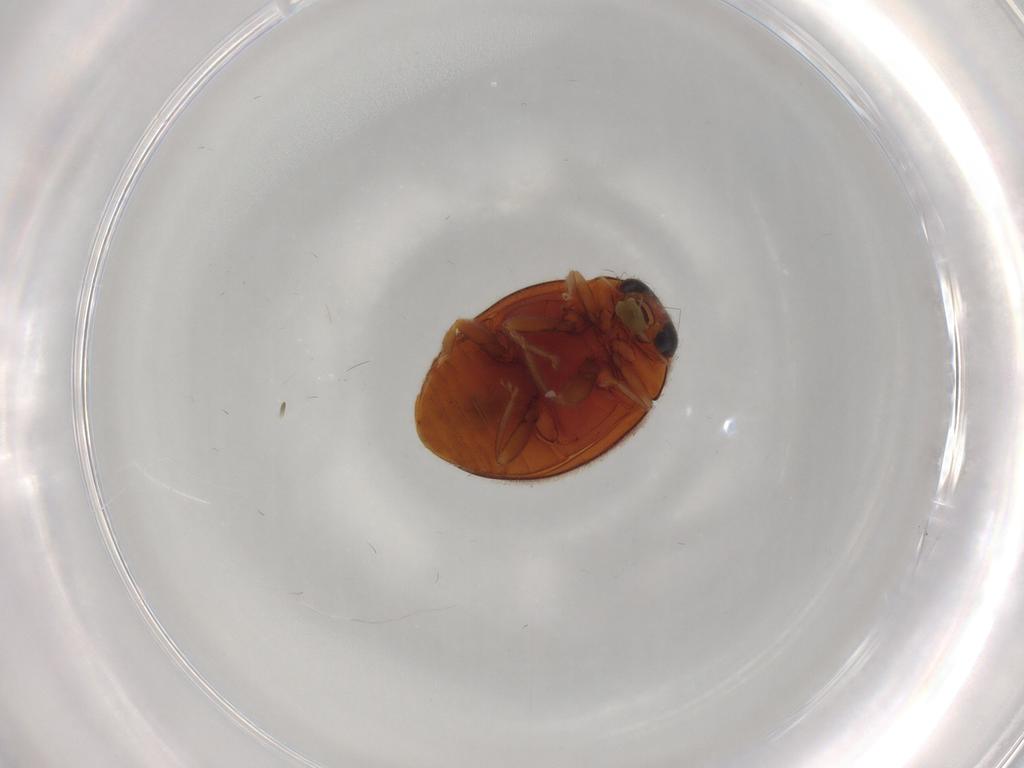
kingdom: Animalia
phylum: Arthropoda
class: Insecta
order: Coleoptera
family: Coccinellidae
